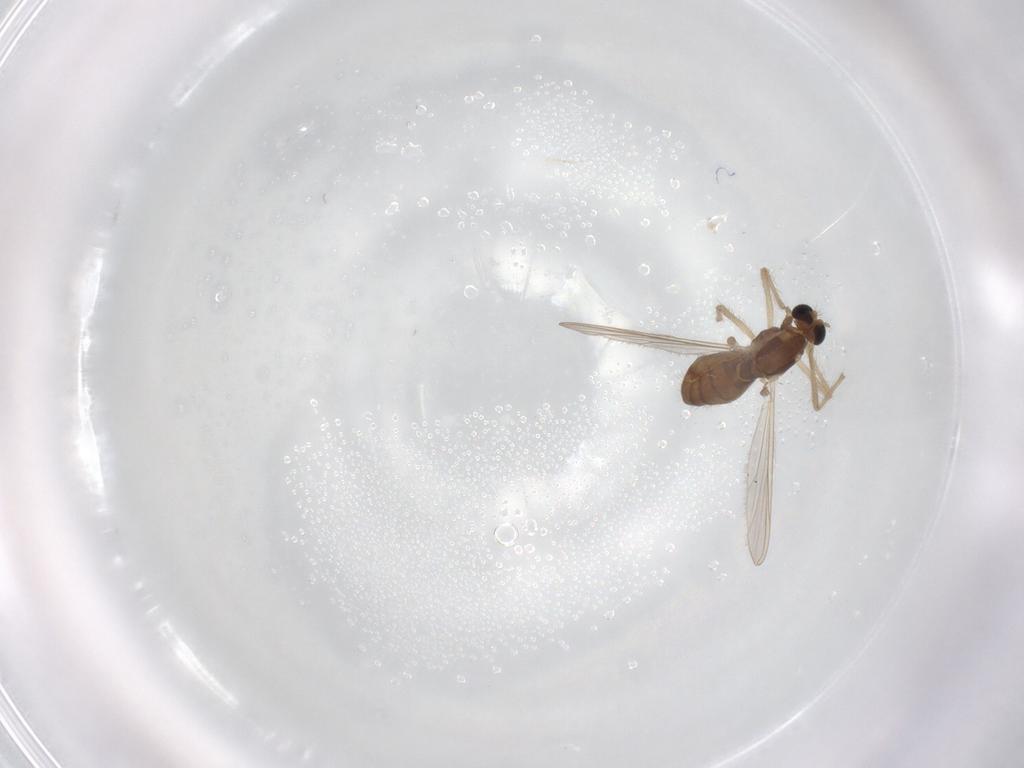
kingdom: Animalia
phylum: Arthropoda
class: Insecta
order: Diptera
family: Chironomidae
